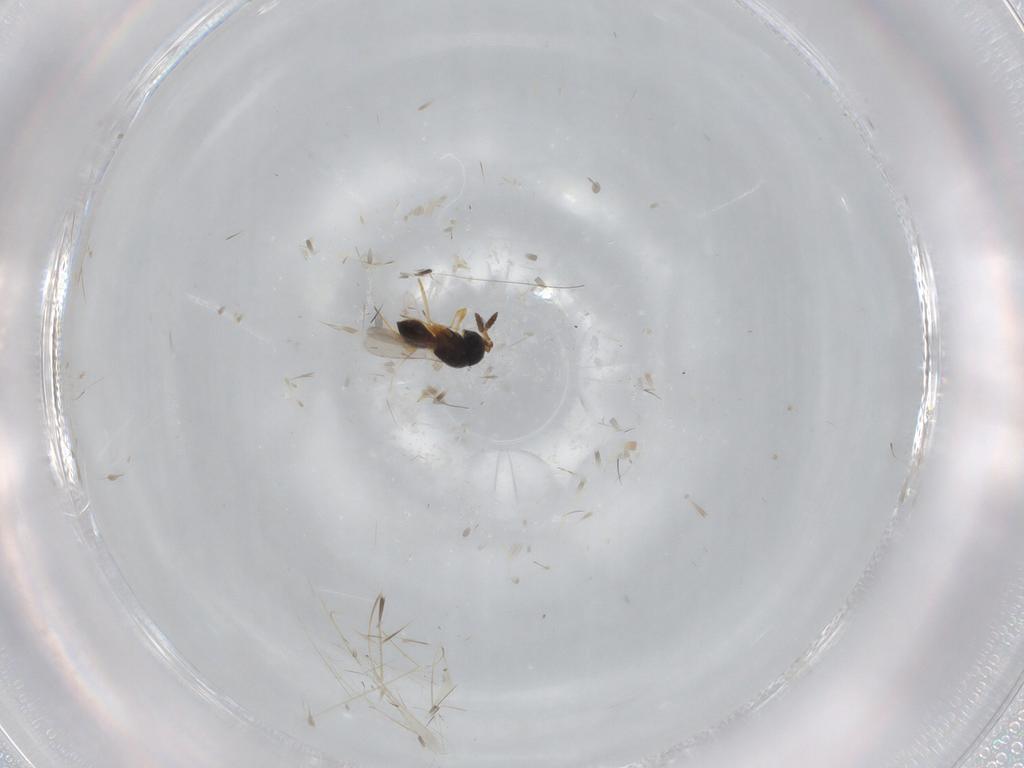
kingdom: Animalia
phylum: Arthropoda
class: Insecta
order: Hymenoptera
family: Scelionidae
